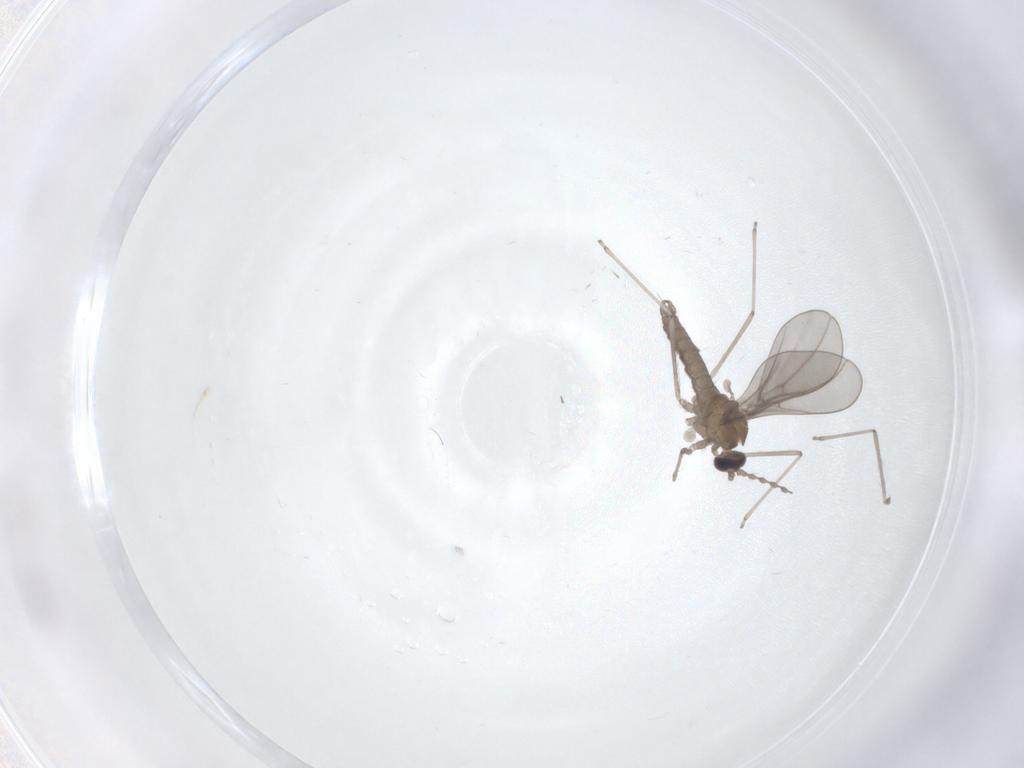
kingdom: Animalia
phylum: Arthropoda
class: Insecta
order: Diptera
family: Cecidomyiidae
